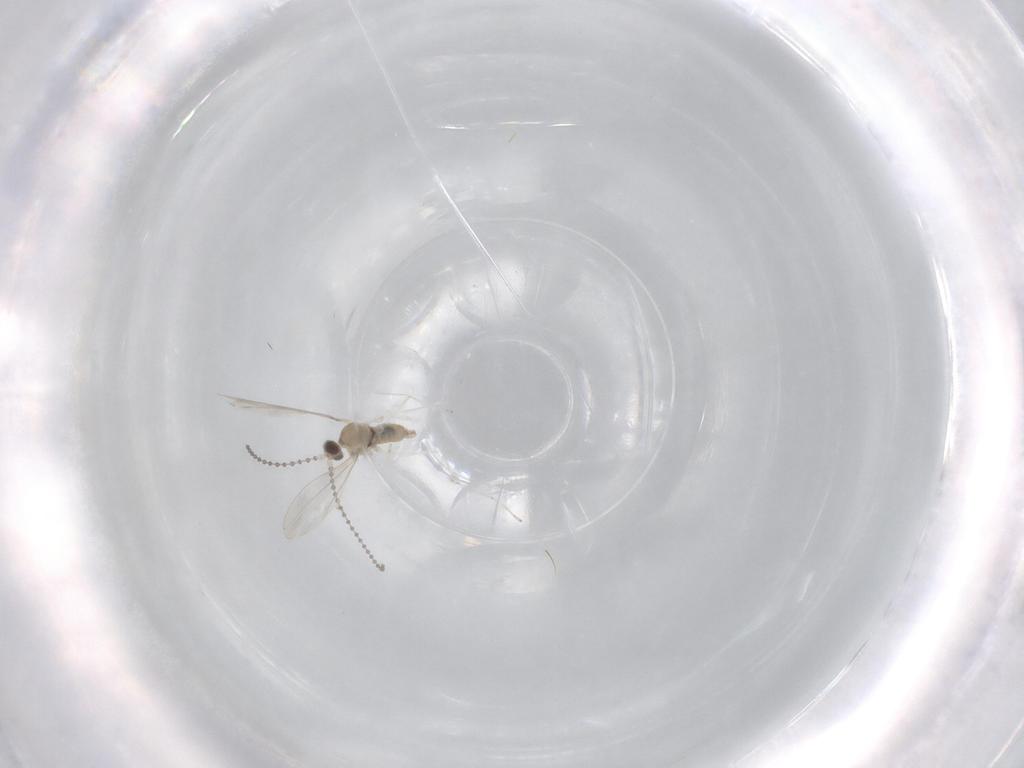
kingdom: Animalia
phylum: Arthropoda
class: Insecta
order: Diptera
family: Cecidomyiidae
